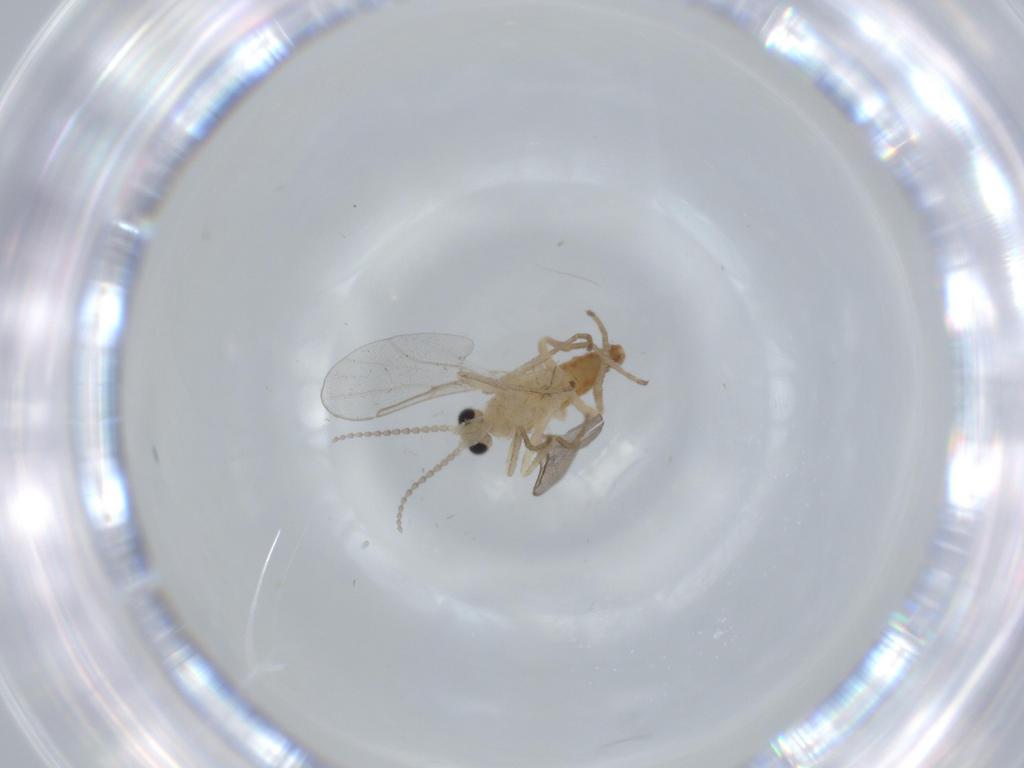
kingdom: Animalia
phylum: Arthropoda
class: Insecta
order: Diptera
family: Cecidomyiidae
